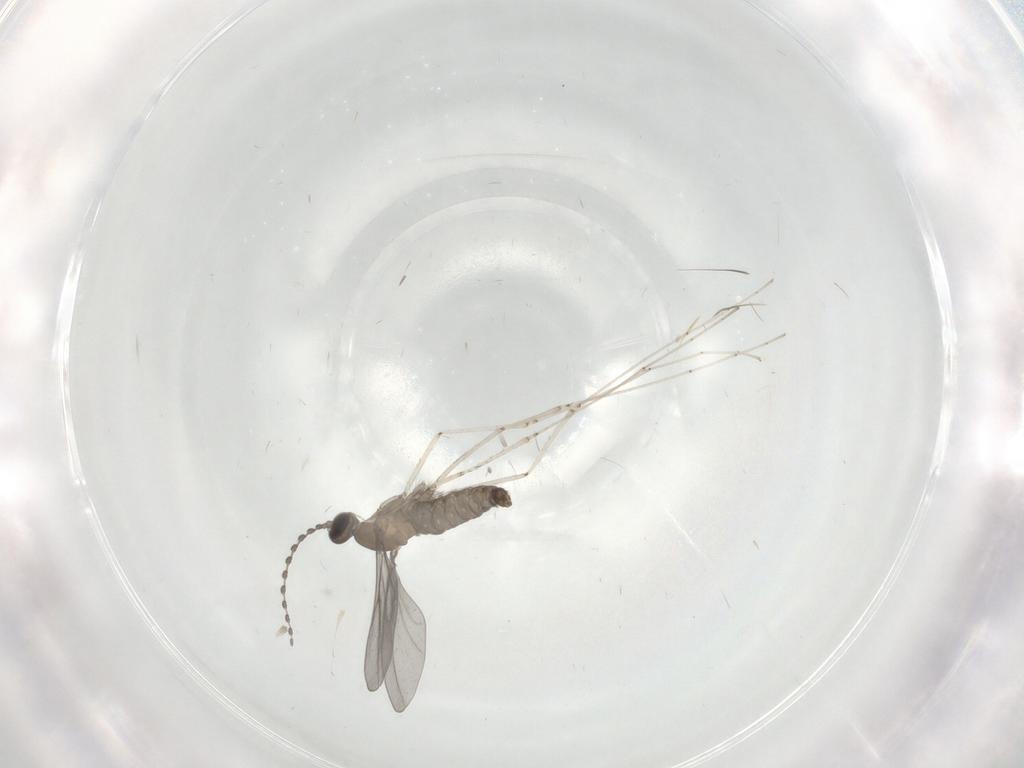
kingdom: Animalia
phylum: Arthropoda
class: Insecta
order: Diptera
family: Cecidomyiidae
